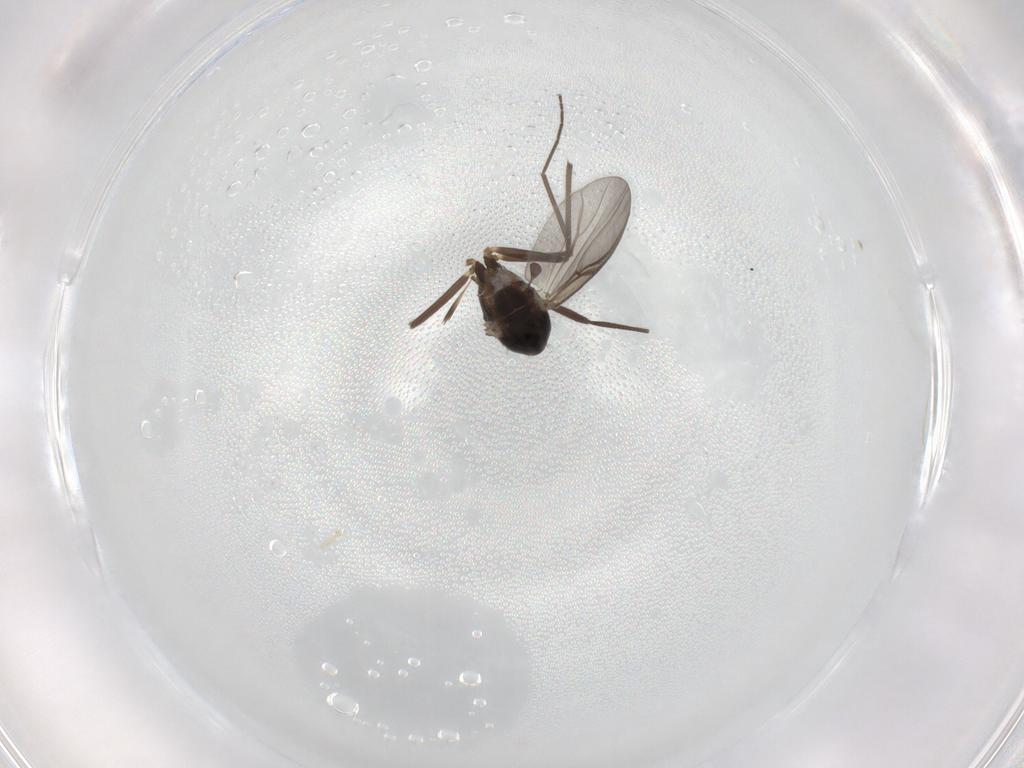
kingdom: Animalia
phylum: Arthropoda
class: Insecta
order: Diptera
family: Chironomidae
